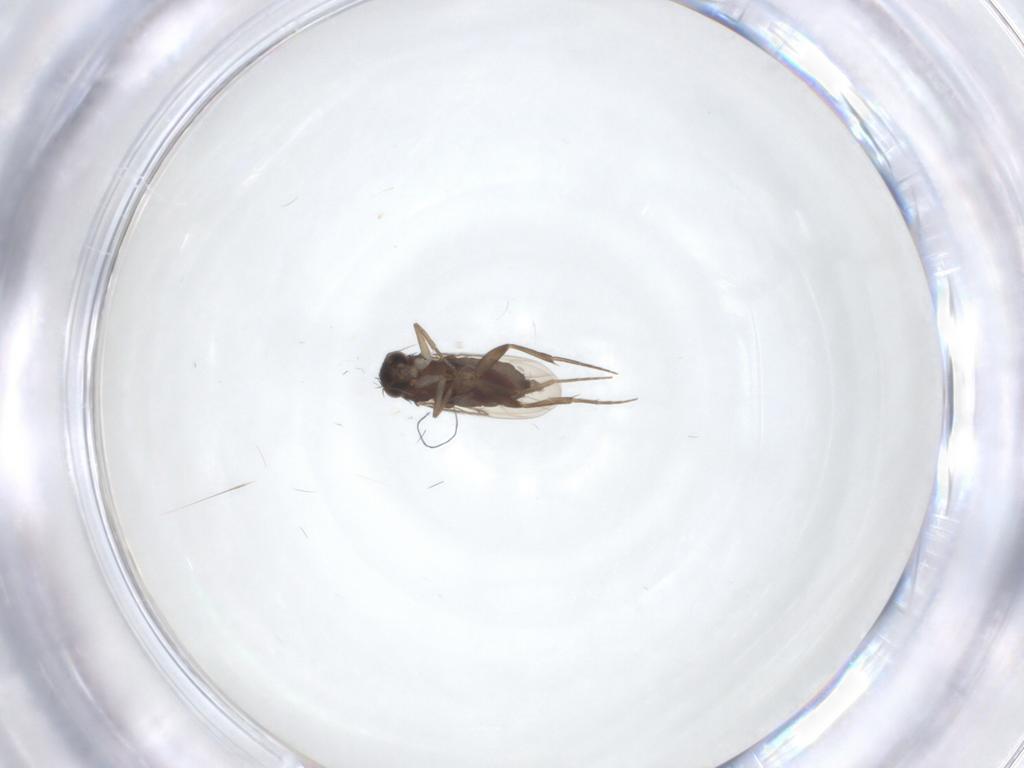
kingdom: Animalia
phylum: Arthropoda
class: Insecta
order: Diptera
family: Phoridae
